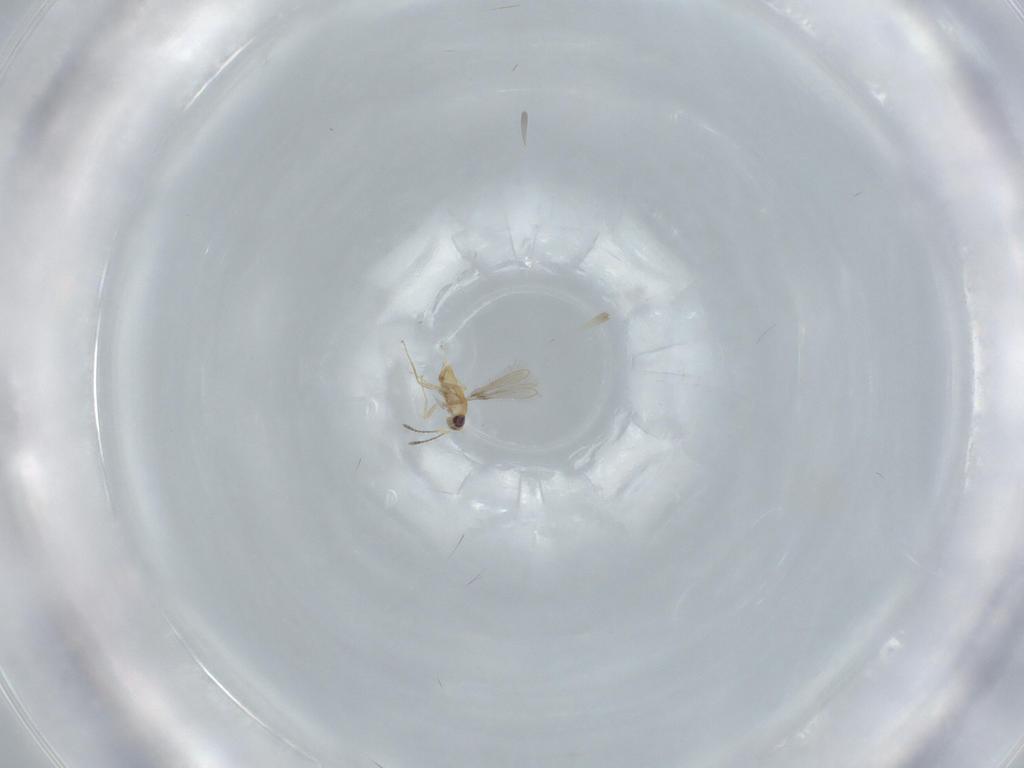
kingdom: Animalia
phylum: Arthropoda
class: Insecta
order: Hymenoptera
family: Mymaridae
